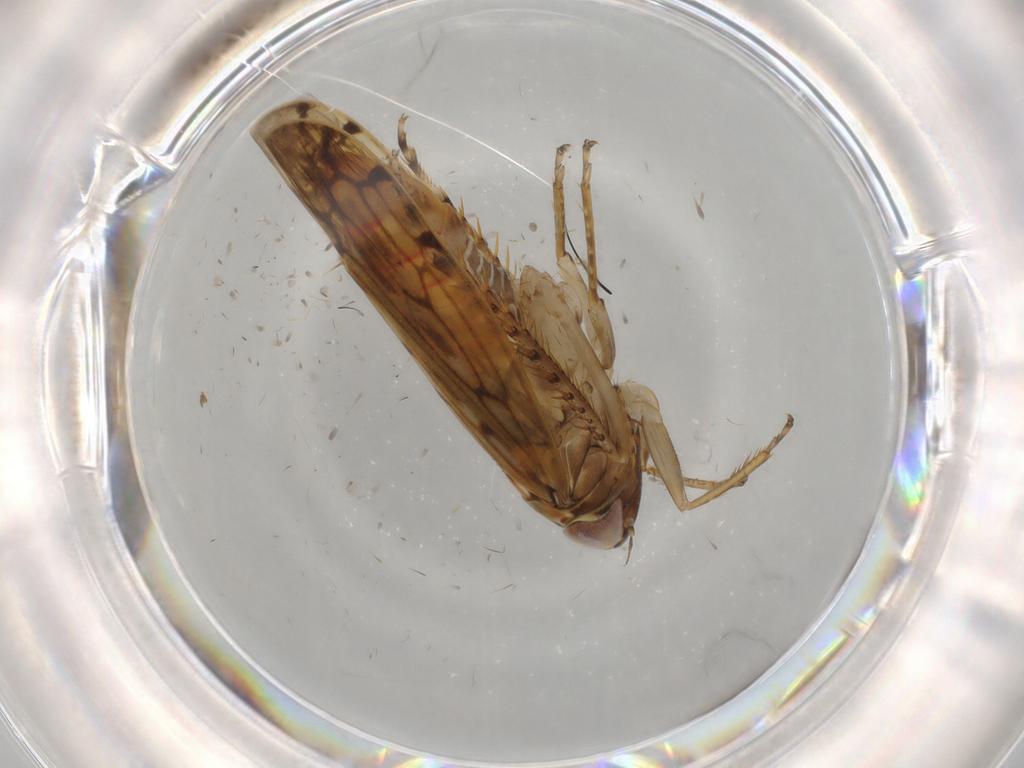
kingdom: Animalia
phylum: Arthropoda
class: Insecta
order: Hemiptera
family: Cicadellidae
